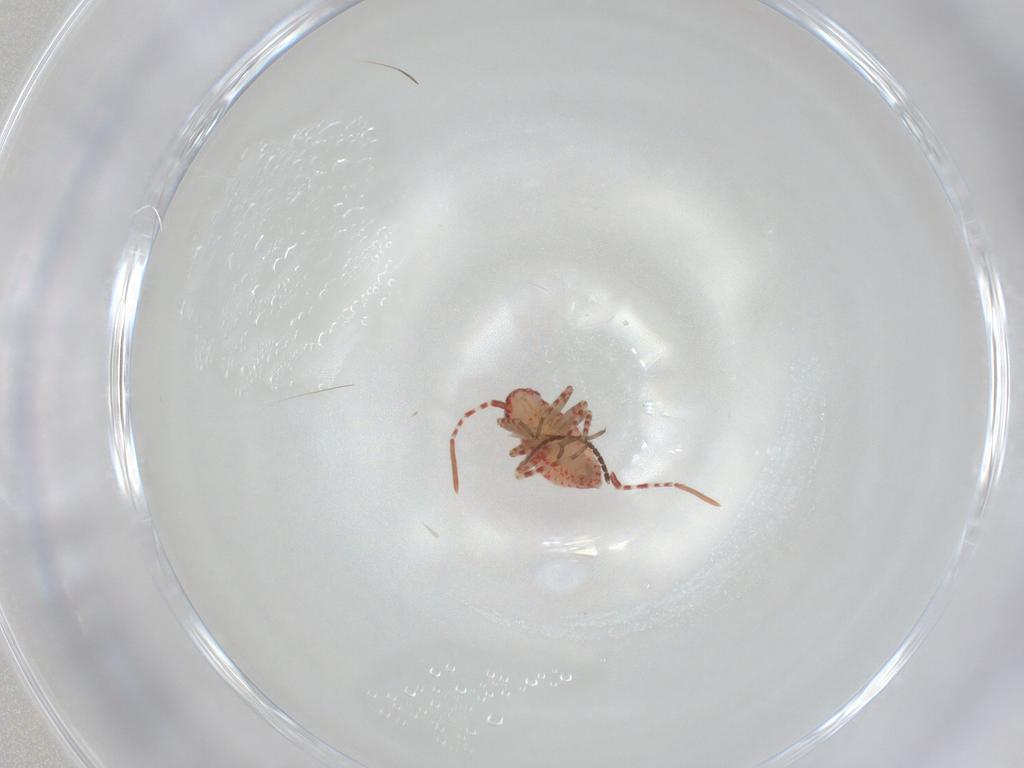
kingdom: Animalia
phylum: Arthropoda
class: Insecta
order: Hemiptera
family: Miridae
